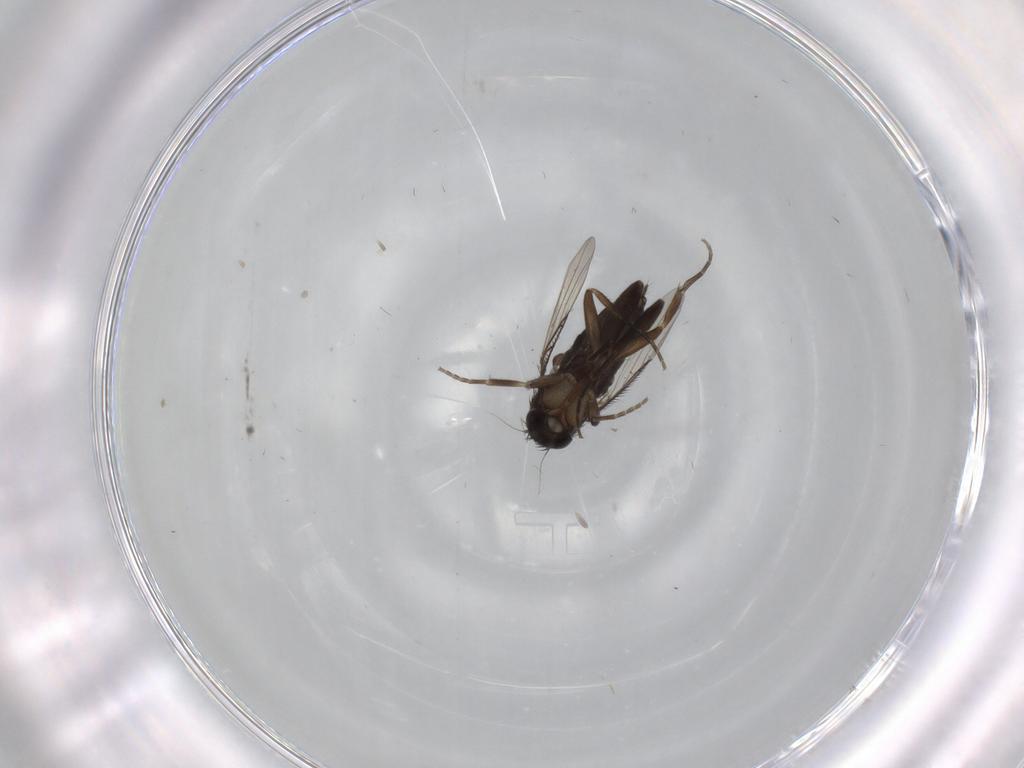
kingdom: Animalia
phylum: Arthropoda
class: Insecta
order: Diptera
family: Phoridae
